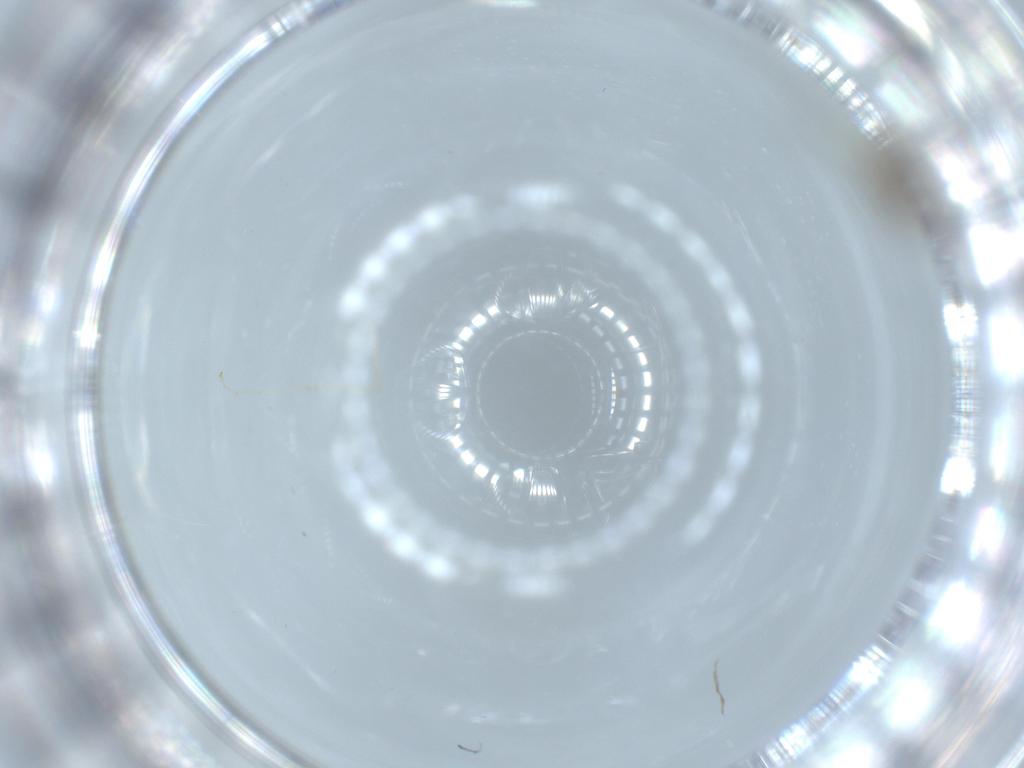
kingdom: Animalia
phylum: Arthropoda
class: Insecta
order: Diptera
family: Cecidomyiidae
